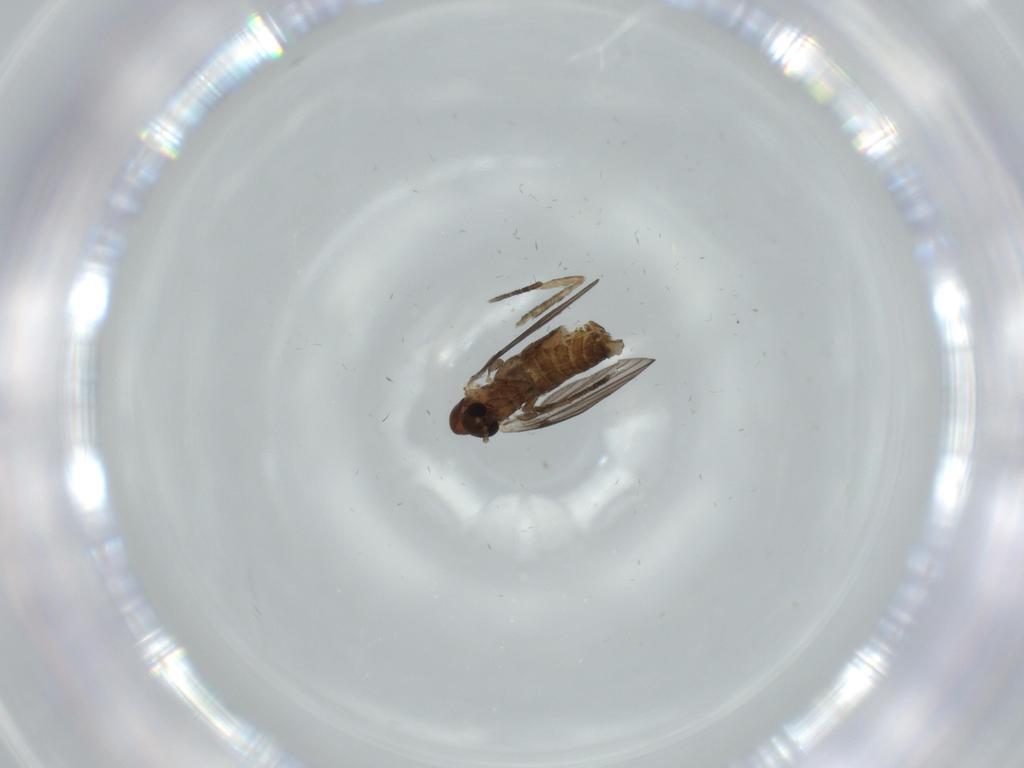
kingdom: Animalia
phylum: Arthropoda
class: Insecta
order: Diptera
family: Psychodidae
